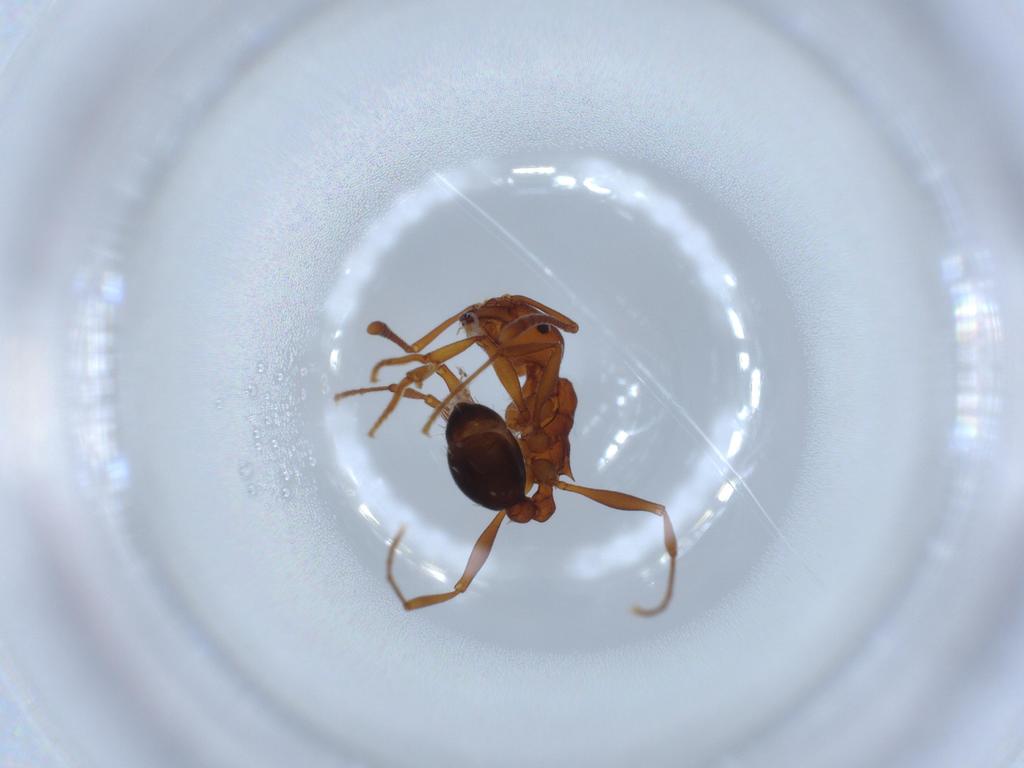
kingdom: Animalia
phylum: Arthropoda
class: Insecta
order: Hymenoptera
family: Formicidae
